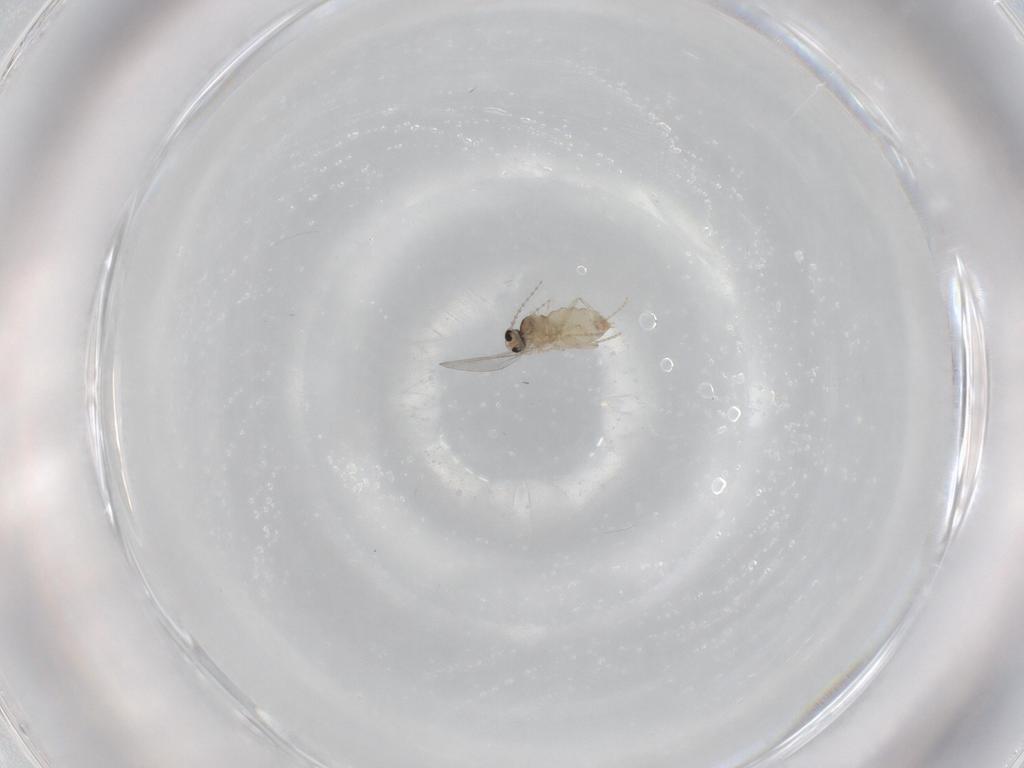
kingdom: Animalia
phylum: Arthropoda
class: Insecta
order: Diptera
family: Cecidomyiidae
